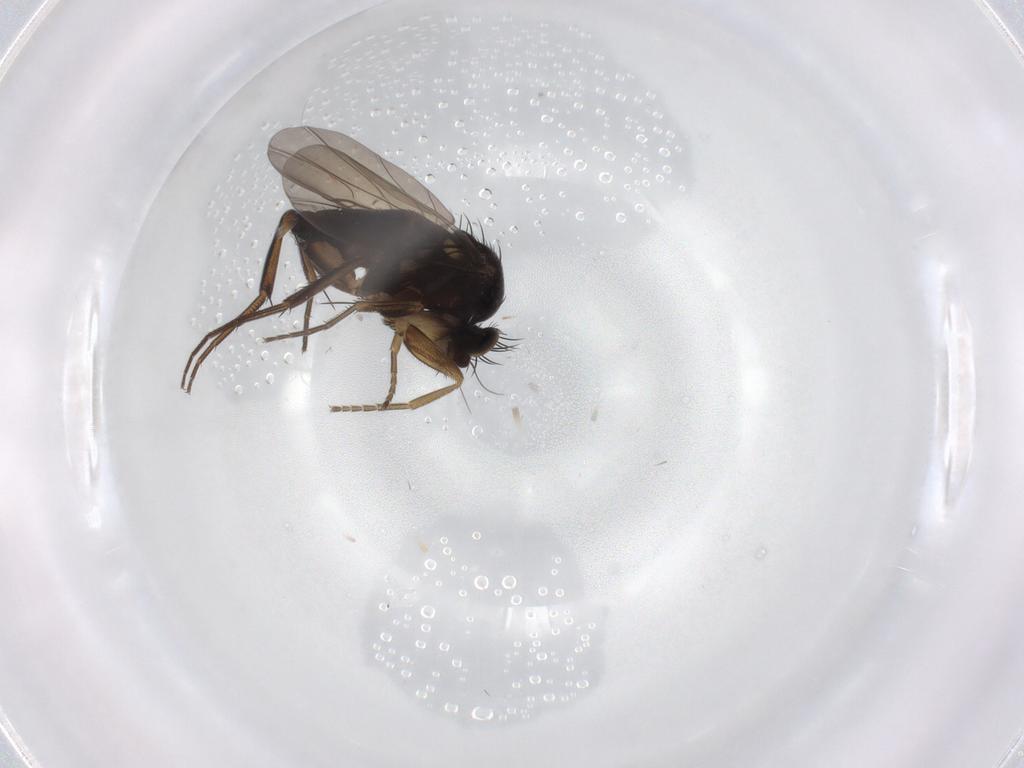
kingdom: Animalia
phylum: Arthropoda
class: Insecta
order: Diptera
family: Phoridae
